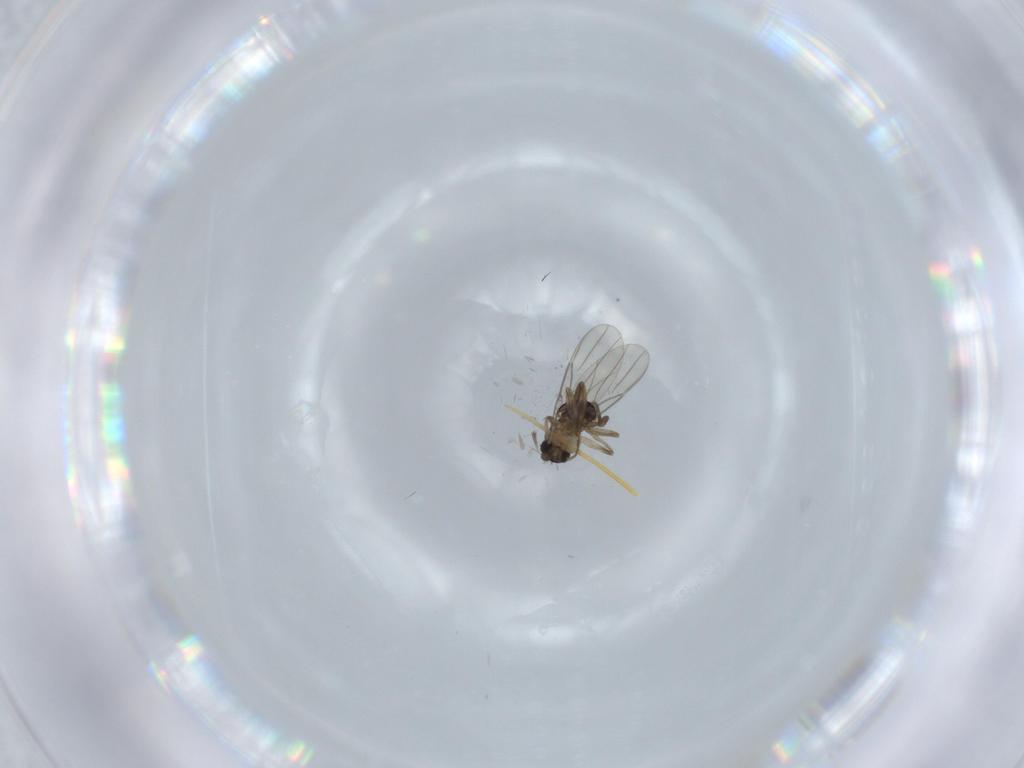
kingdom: Animalia
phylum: Arthropoda
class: Insecta
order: Diptera
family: Phoridae
